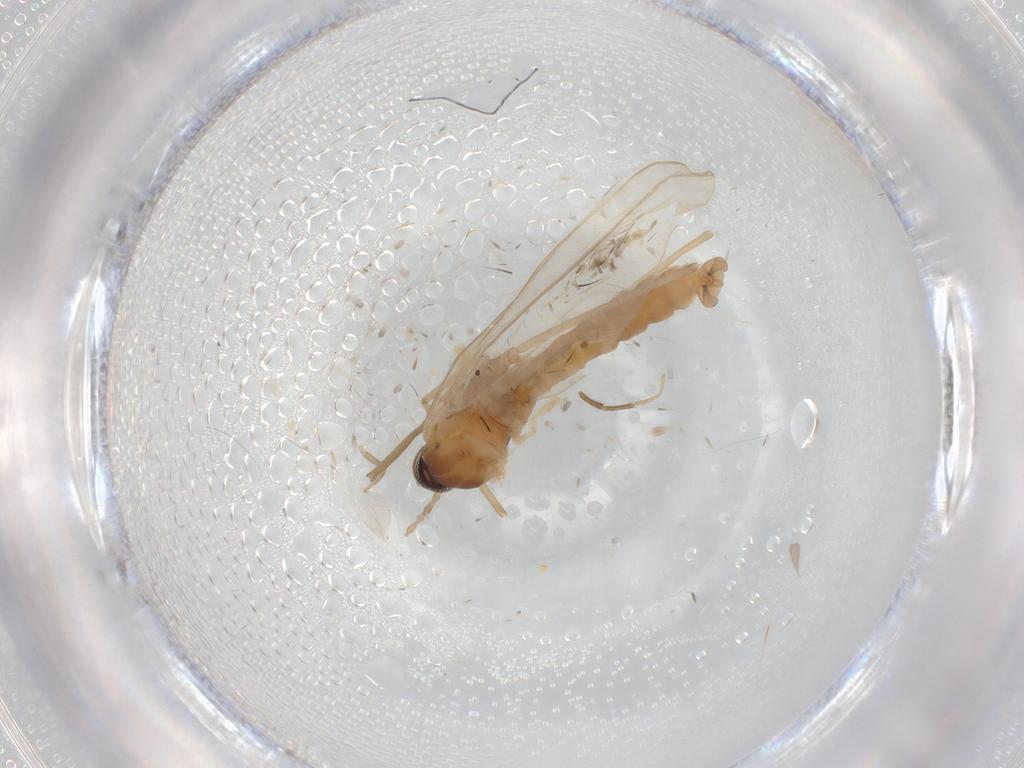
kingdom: Animalia
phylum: Arthropoda
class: Insecta
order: Diptera
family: Cecidomyiidae
